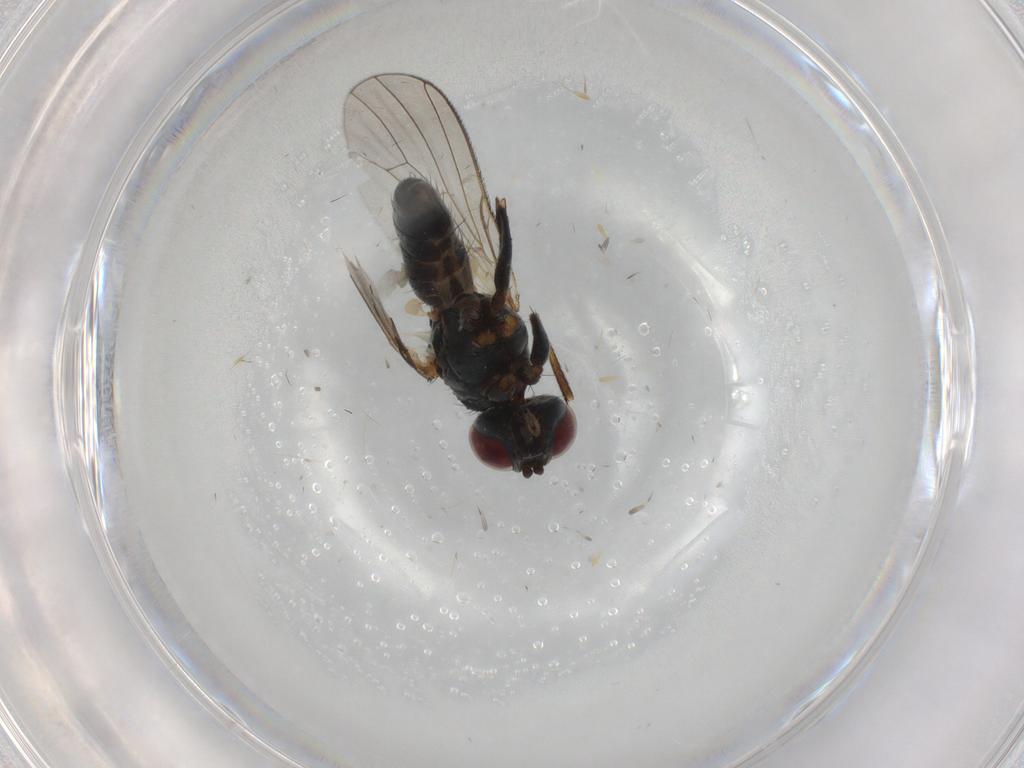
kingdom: Animalia
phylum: Arthropoda
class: Insecta
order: Diptera
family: Muscidae
